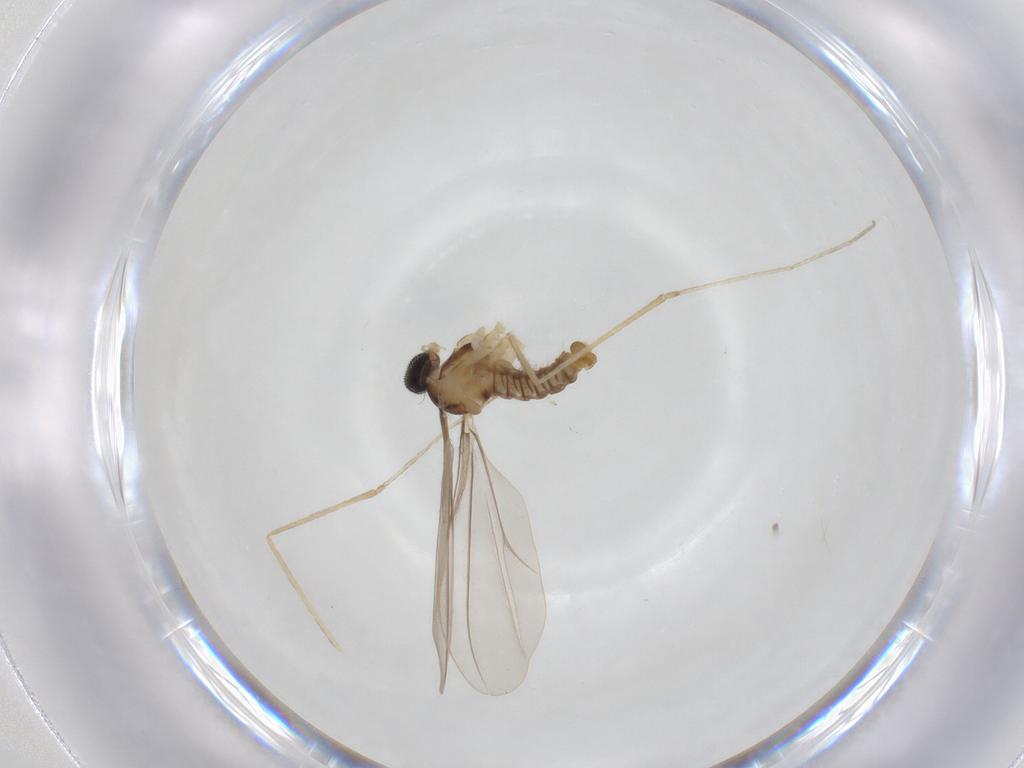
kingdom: Animalia
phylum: Arthropoda
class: Insecta
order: Diptera
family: Cecidomyiidae
